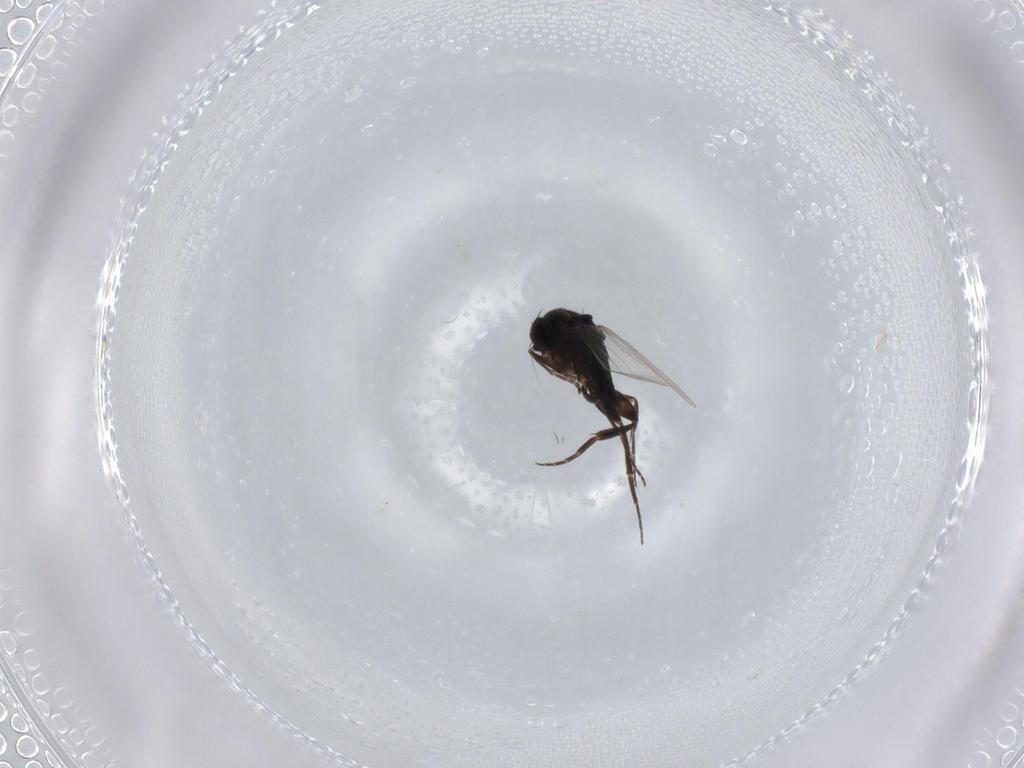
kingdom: Animalia
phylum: Arthropoda
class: Insecta
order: Diptera
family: Phoridae
